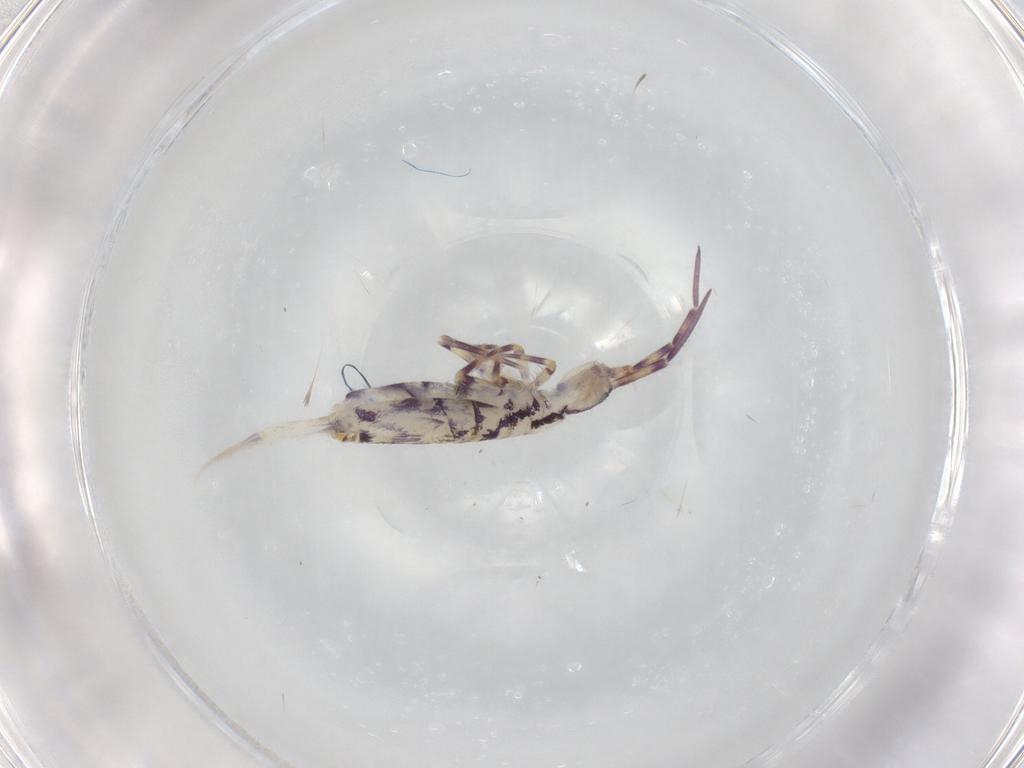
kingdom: Animalia
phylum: Arthropoda
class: Collembola
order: Entomobryomorpha
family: Entomobryidae
